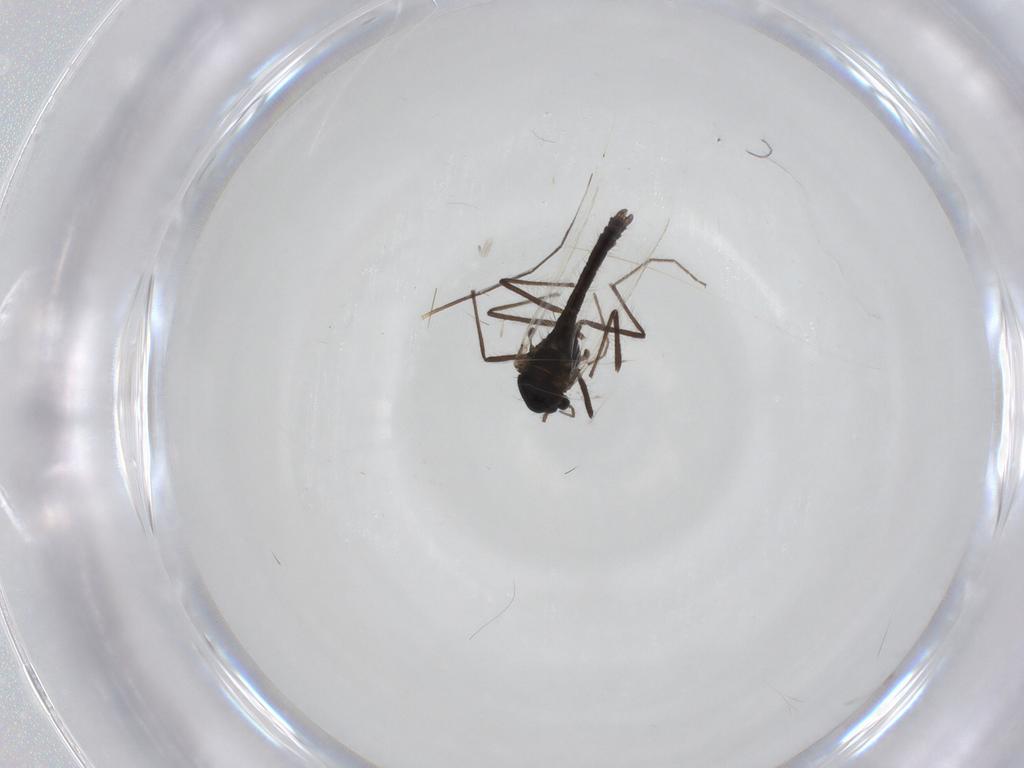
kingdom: Animalia
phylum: Arthropoda
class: Insecta
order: Diptera
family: Chironomidae
